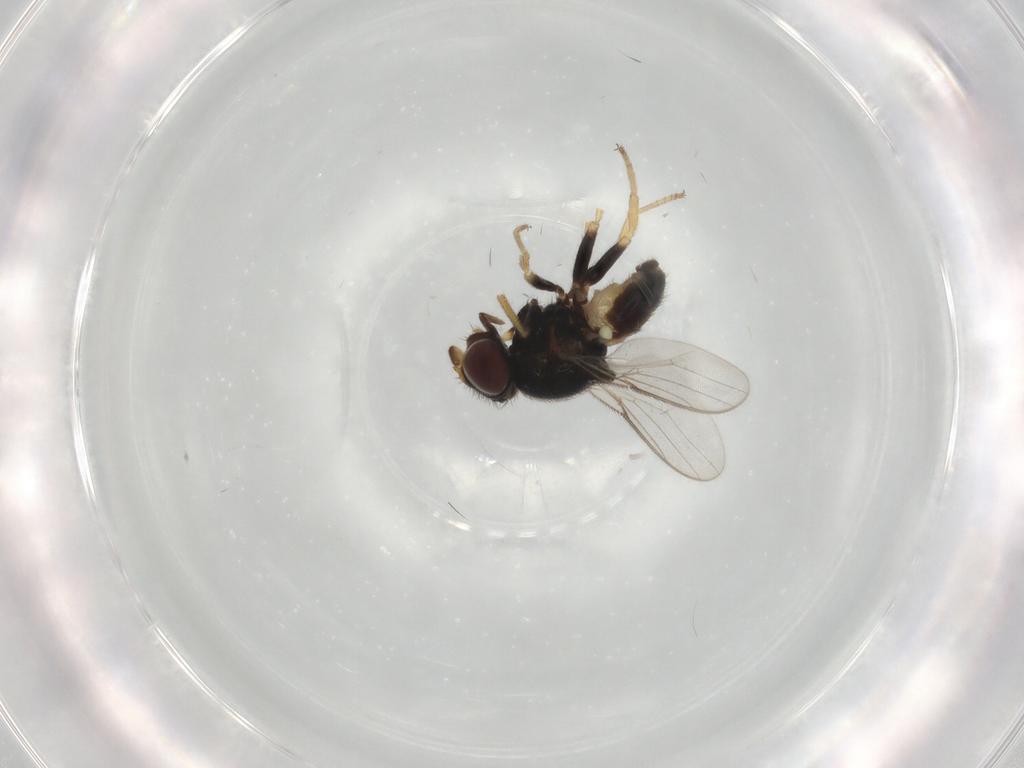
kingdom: Animalia
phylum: Arthropoda
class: Insecta
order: Diptera
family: Chloropidae
